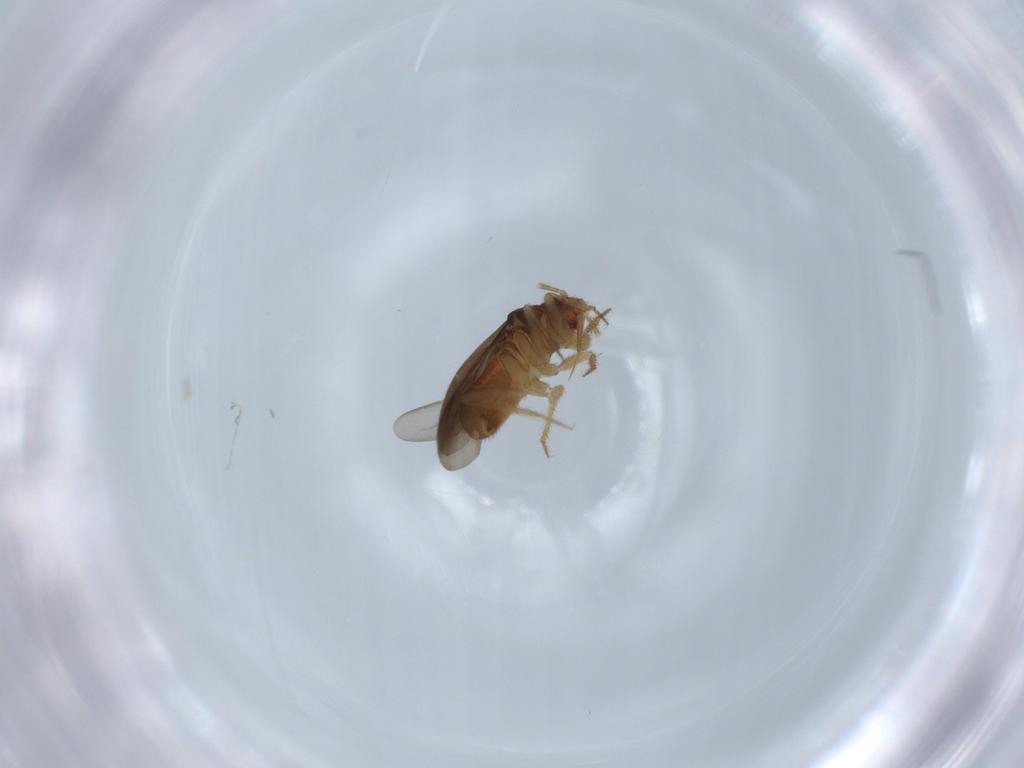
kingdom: Animalia
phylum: Arthropoda
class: Insecta
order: Hemiptera
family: Ceratocombidae
